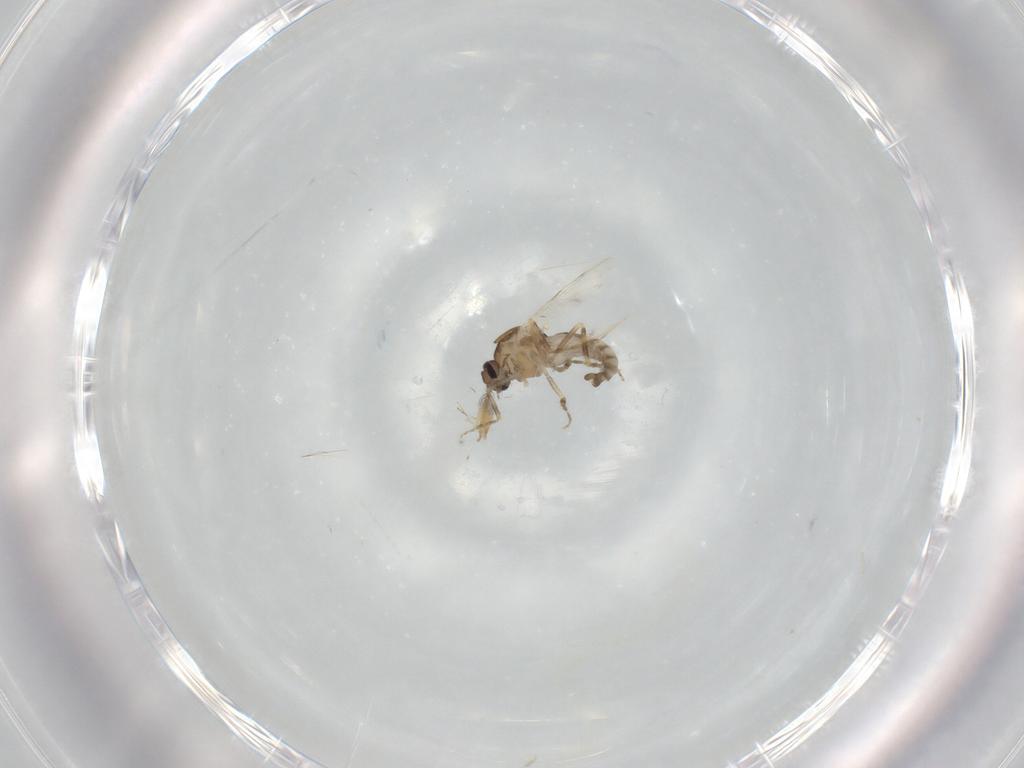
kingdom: Animalia
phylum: Arthropoda
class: Insecta
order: Diptera
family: Ceratopogonidae
